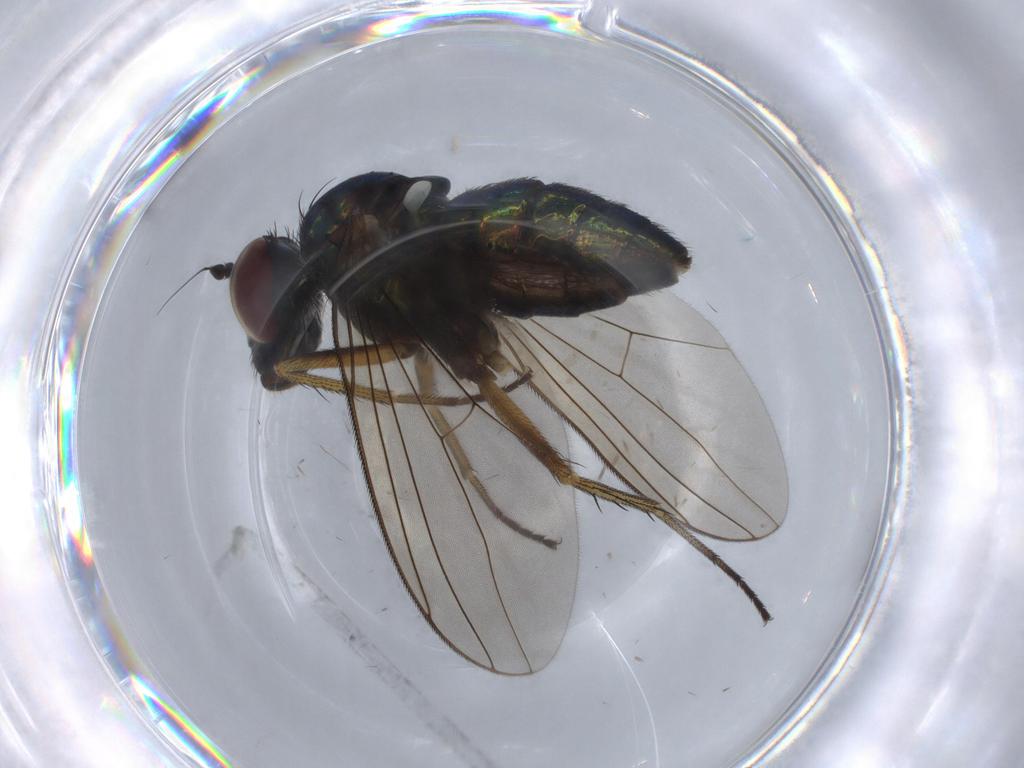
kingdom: Animalia
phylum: Arthropoda
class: Insecta
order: Diptera
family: Dolichopodidae
